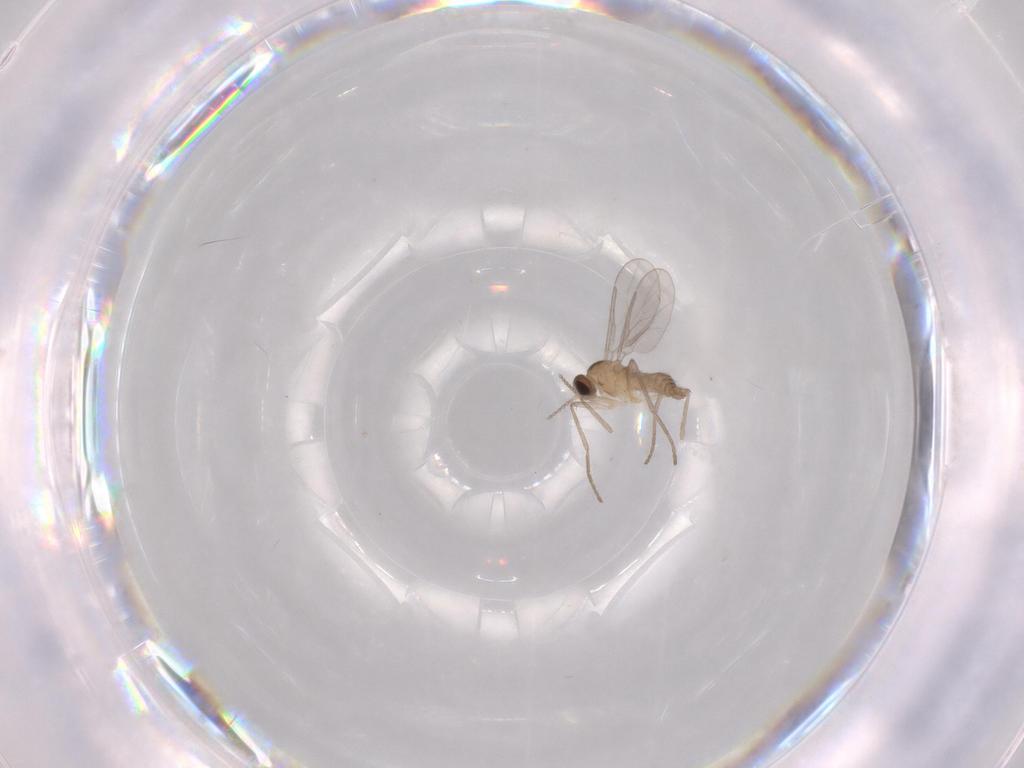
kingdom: Animalia
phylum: Arthropoda
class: Insecta
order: Diptera
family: Cecidomyiidae
